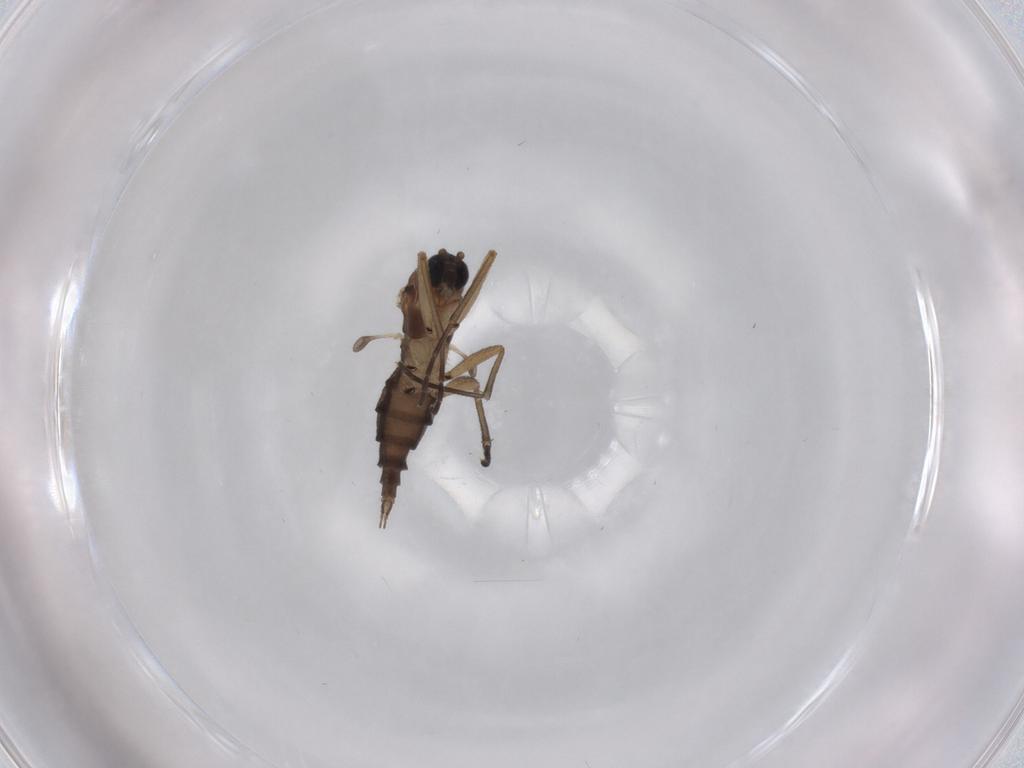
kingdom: Animalia
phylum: Arthropoda
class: Insecta
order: Diptera
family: Sciaridae
